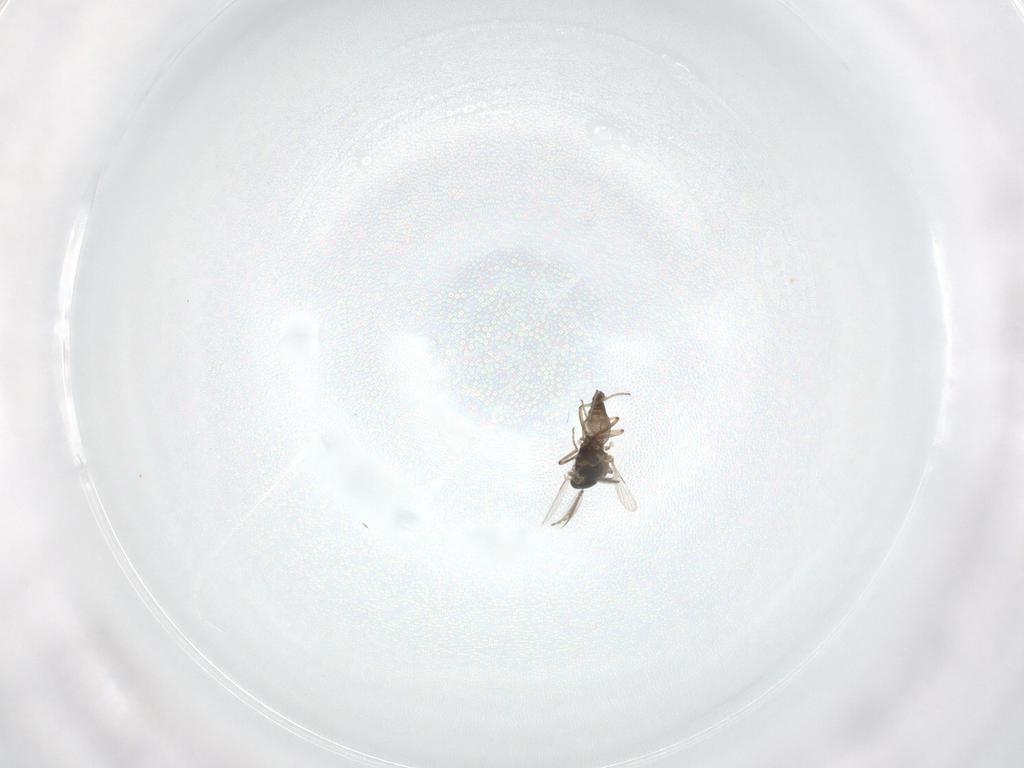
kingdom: Animalia
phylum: Arthropoda
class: Insecta
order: Diptera
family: Ceratopogonidae
